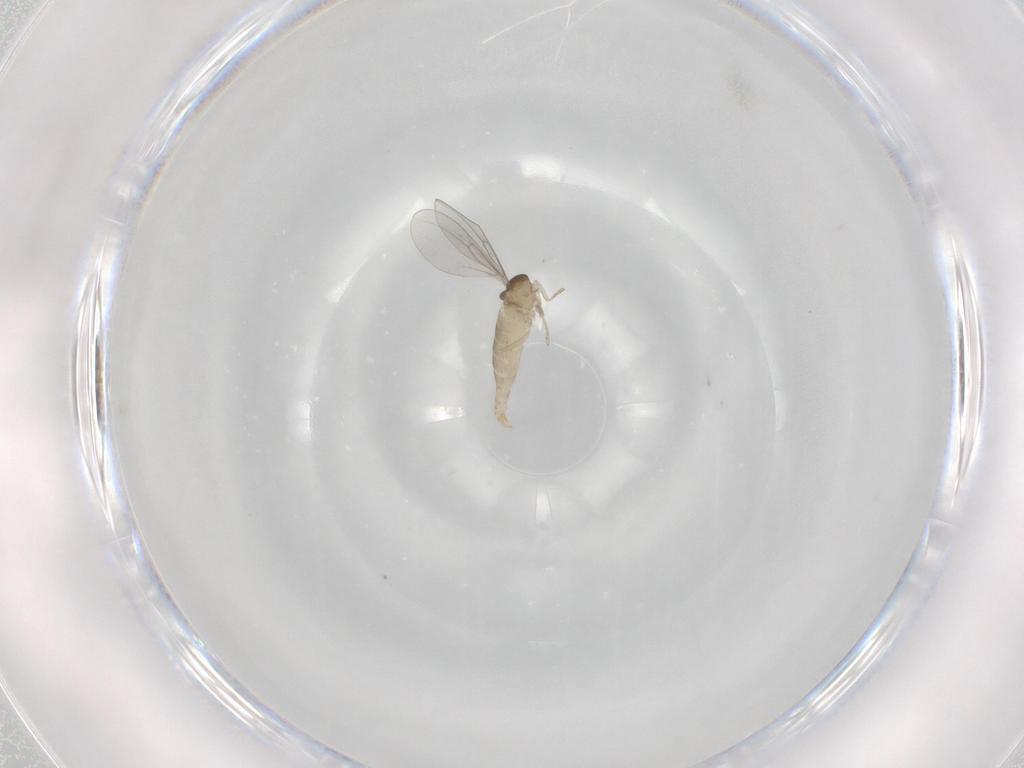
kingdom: Animalia
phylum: Arthropoda
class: Insecta
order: Diptera
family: Cecidomyiidae
